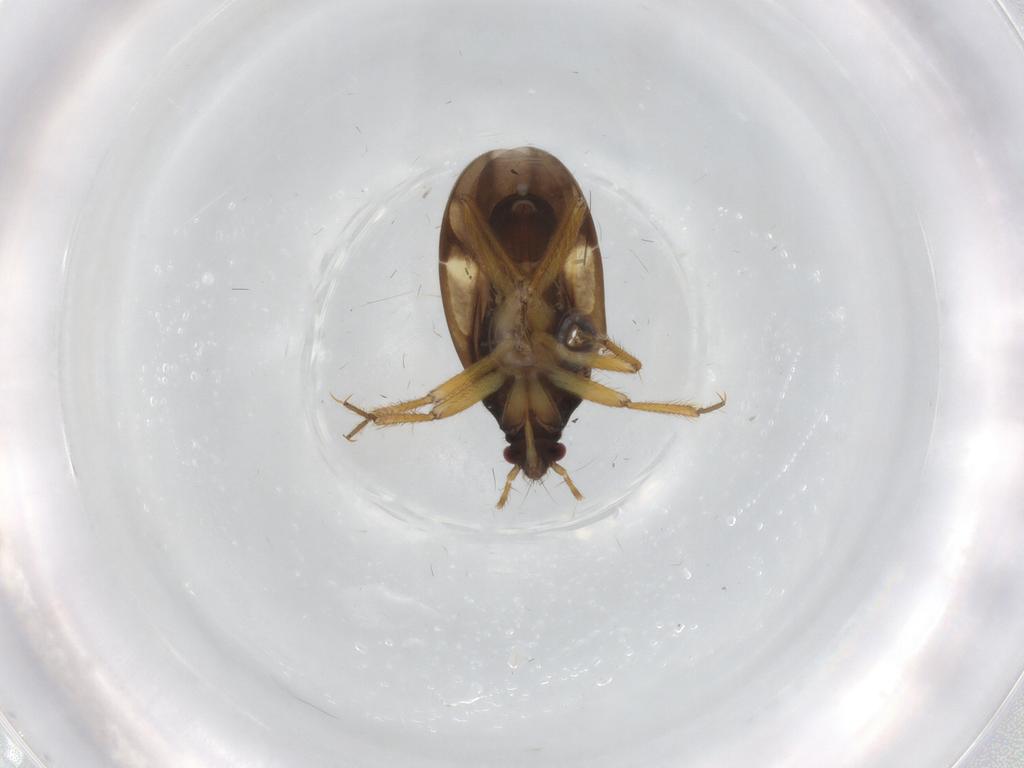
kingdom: Animalia
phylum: Arthropoda
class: Insecta
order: Hemiptera
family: Ceratocombidae
